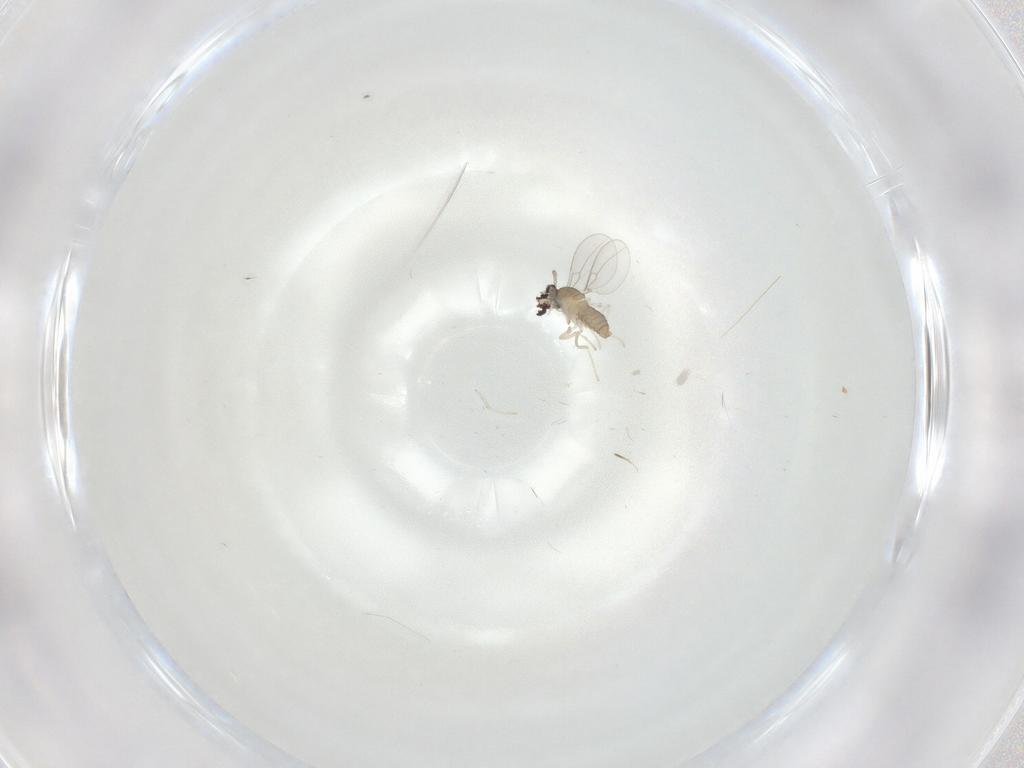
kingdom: Animalia
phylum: Arthropoda
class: Insecta
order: Diptera
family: Cecidomyiidae
